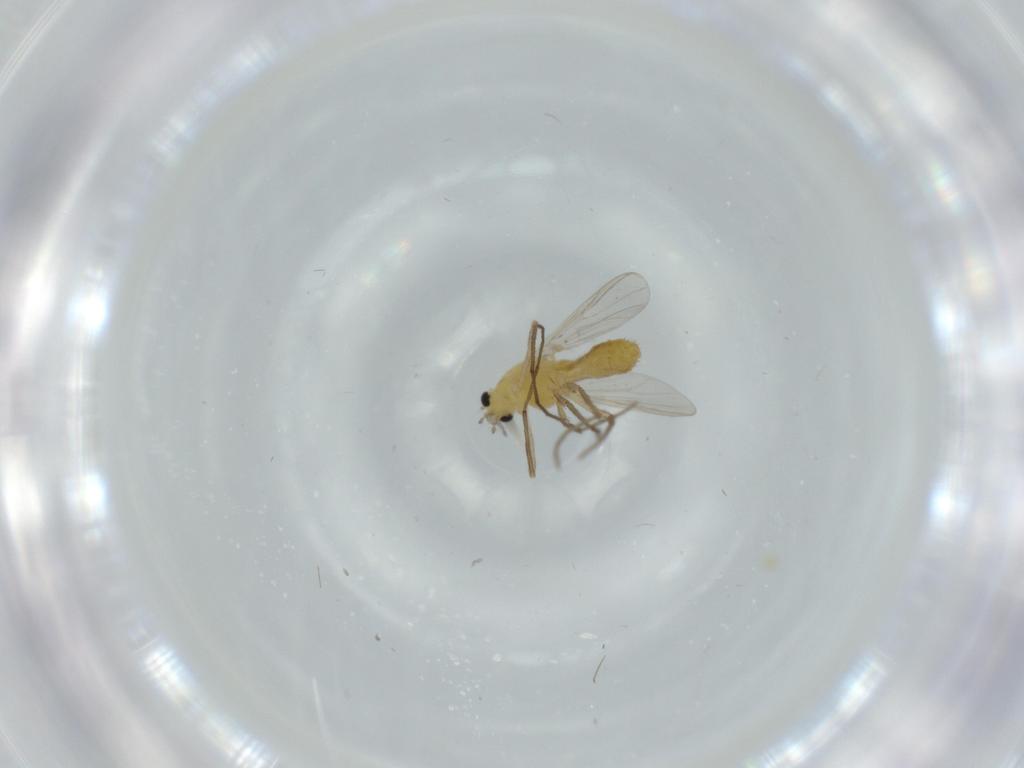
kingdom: Animalia
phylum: Arthropoda
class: Insecta
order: Diptera
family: Chironomidae
